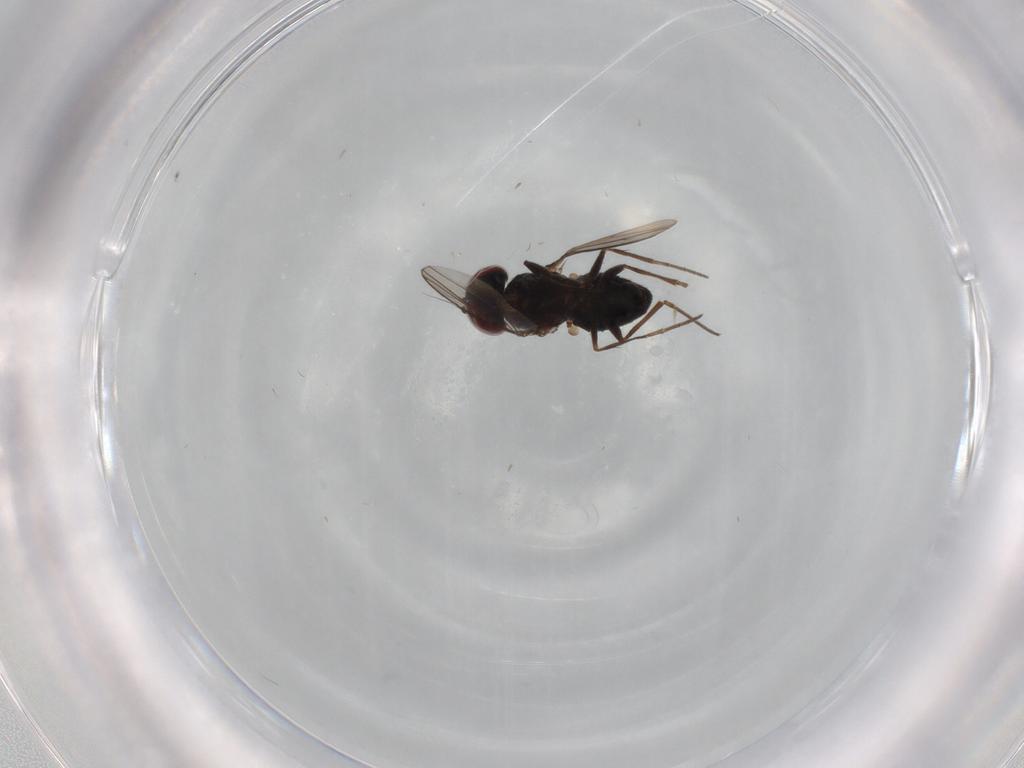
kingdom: Animalia
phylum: Arthropoda
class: Insecta
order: Diptera
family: Dolichopodidae
